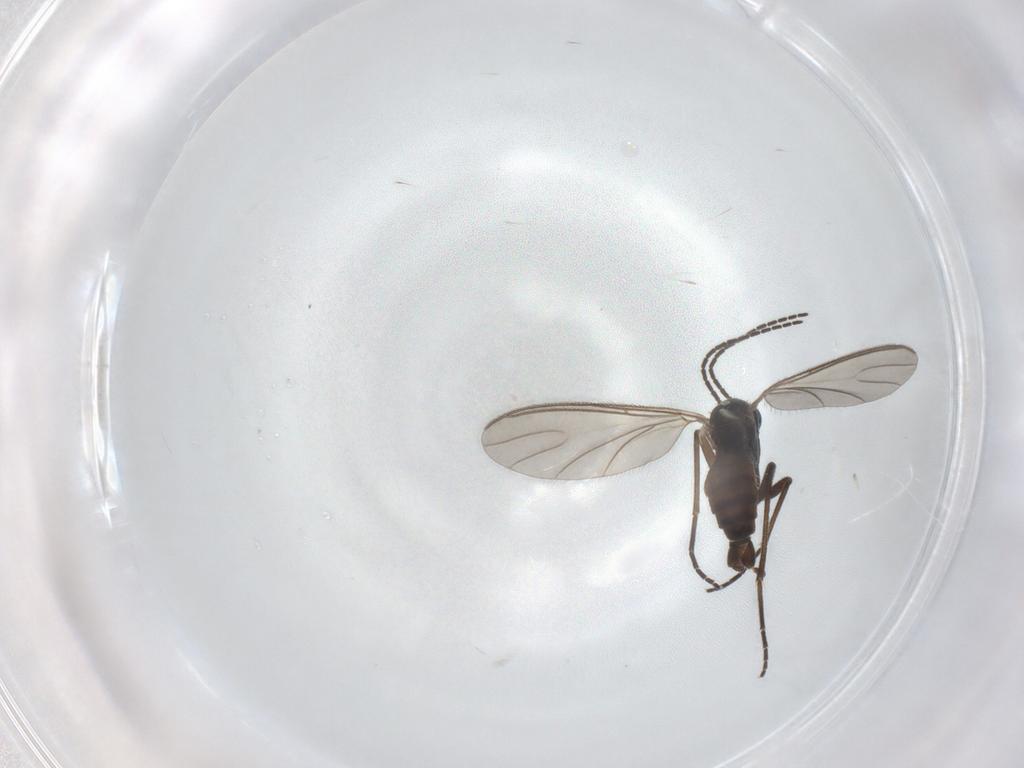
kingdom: Animalia
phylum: Arthropoda
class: Insecta
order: Diptera
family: Sciaridae
